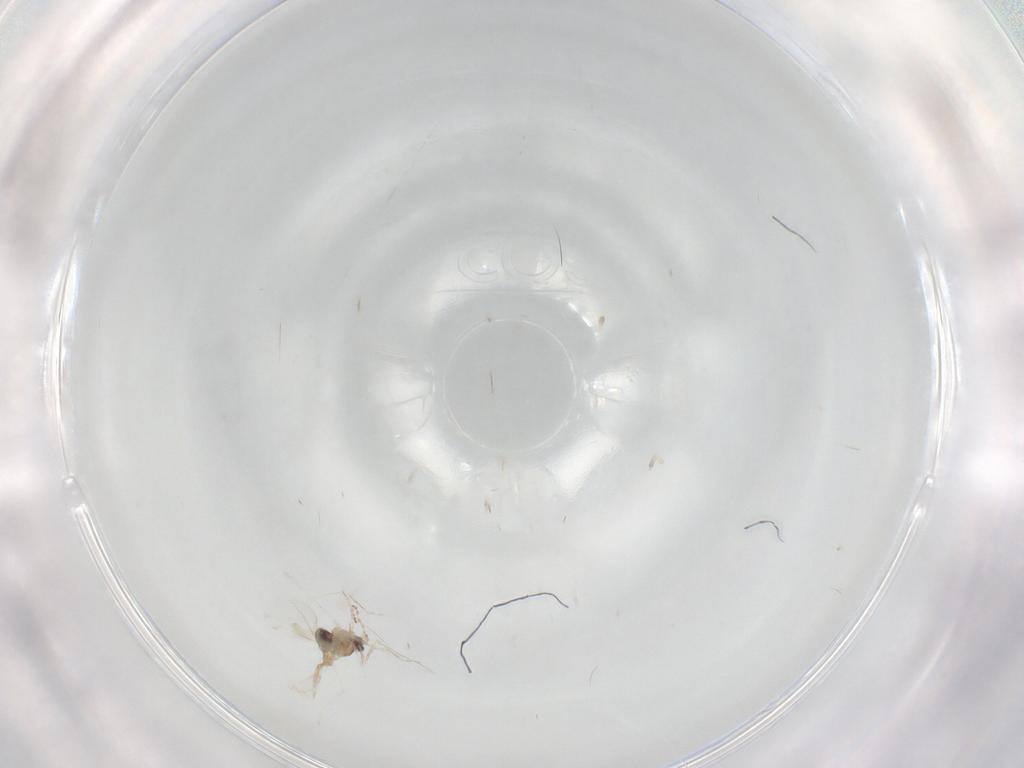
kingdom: Animalia
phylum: Arthropoda
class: Insecta
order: Diptera
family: Cecidomyiidae
